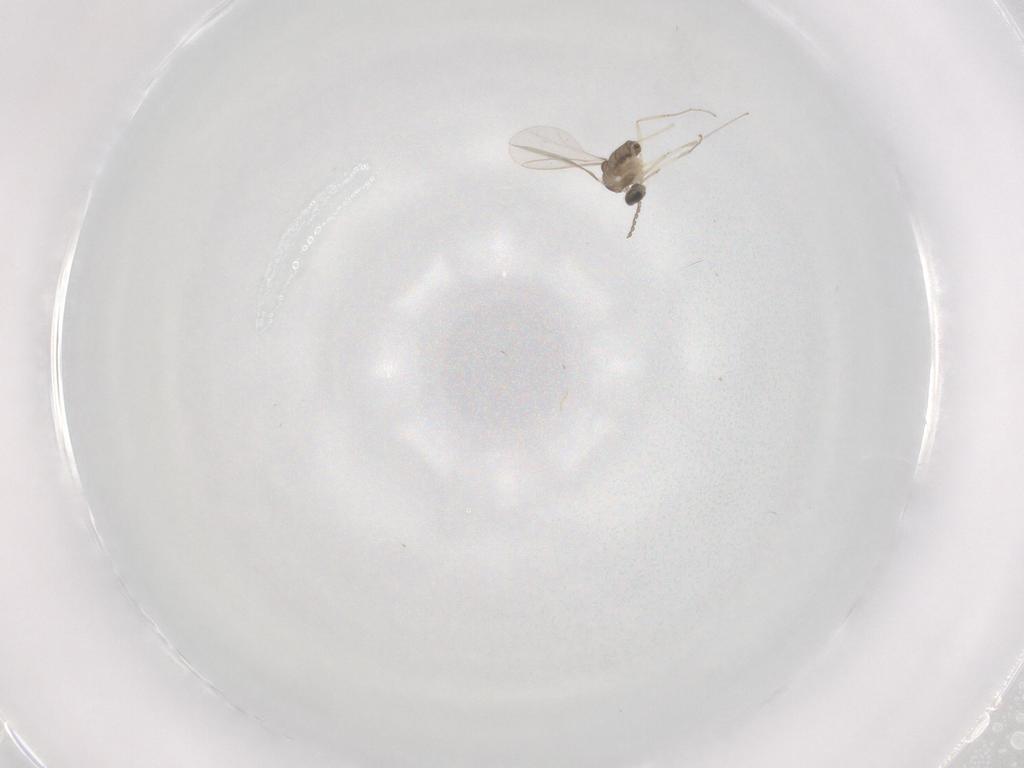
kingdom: Animalia
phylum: Arthropoda
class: Insecta
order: Diptera
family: Cecidomyiidae
